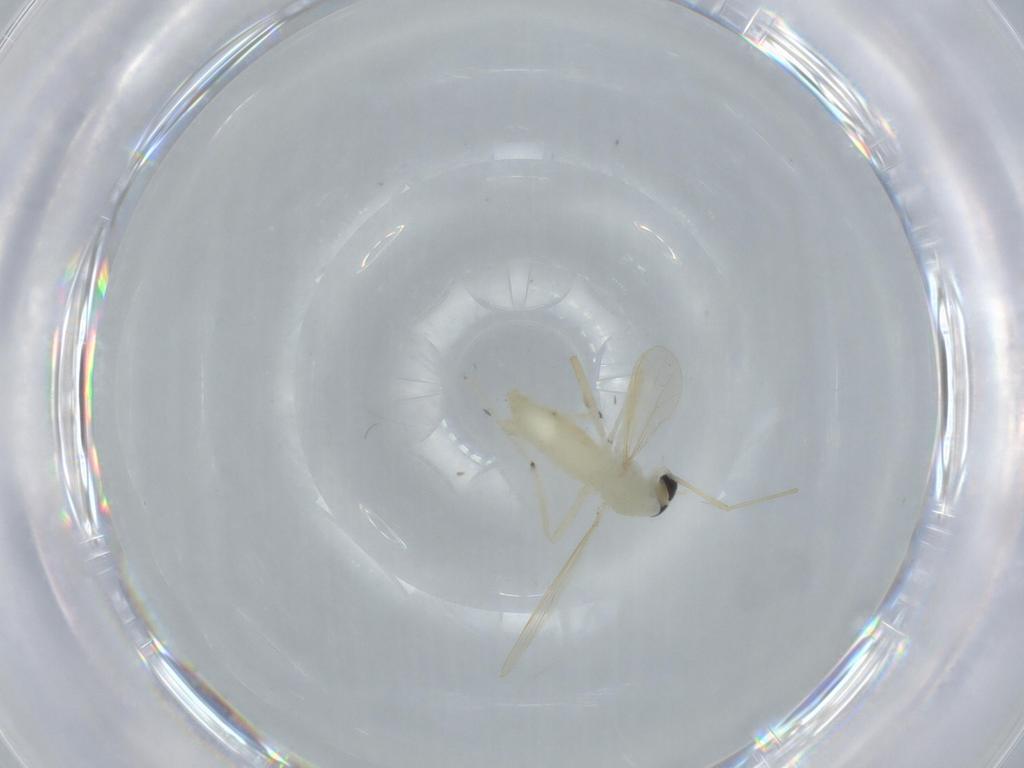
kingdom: Animalia
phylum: Arthropoda
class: Insecta
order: Diptera
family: Chironomidae
